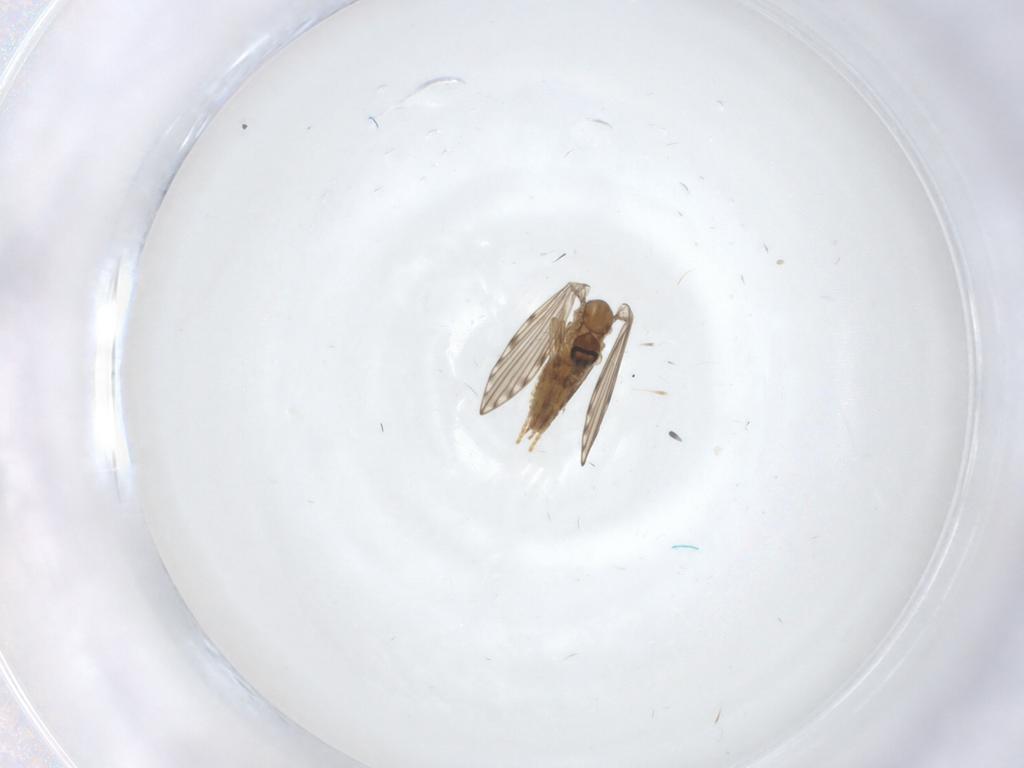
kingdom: Animalia
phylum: Arthropoda
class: Insecta
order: Diptera
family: Psychodidae
